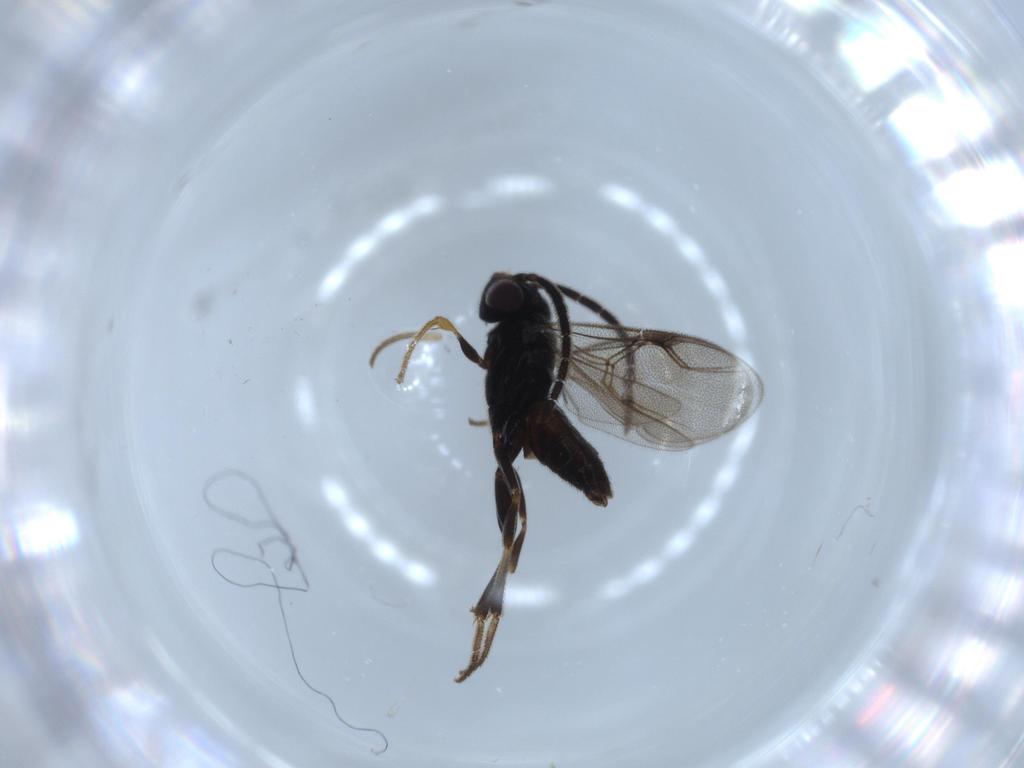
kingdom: Animalia
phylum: Arthropoda
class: Insecta
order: Hymenoptera
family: Dryinidae
